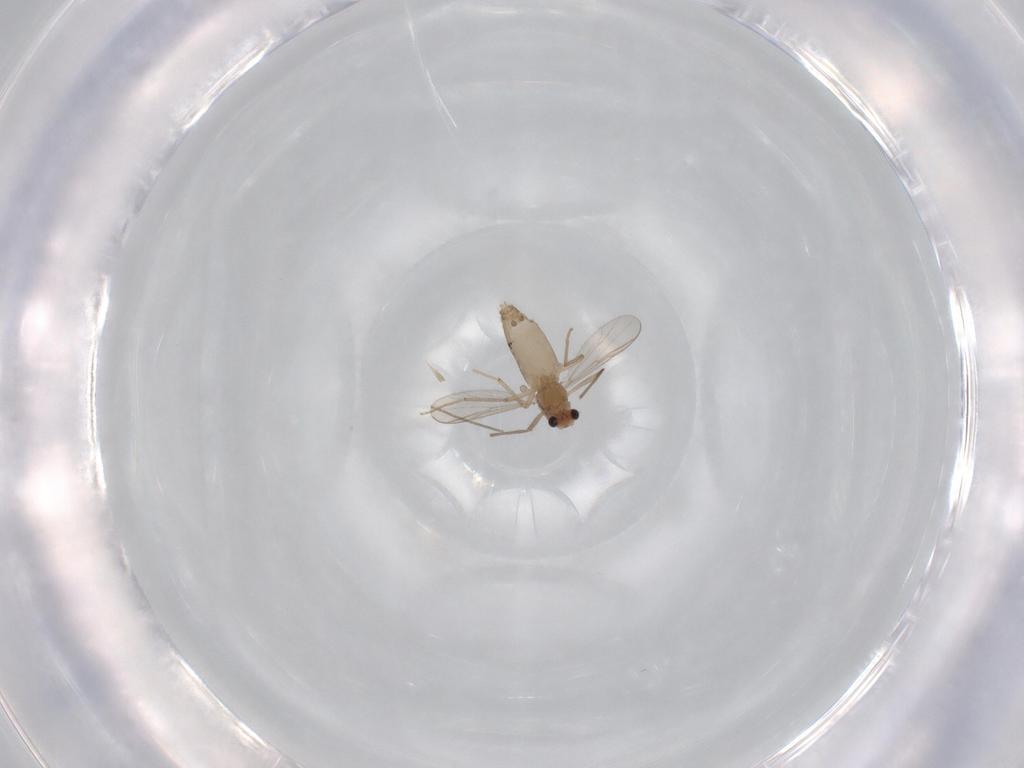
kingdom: Animalia
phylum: Arthropoda
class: Insecta
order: Diptera
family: Chironomidae
